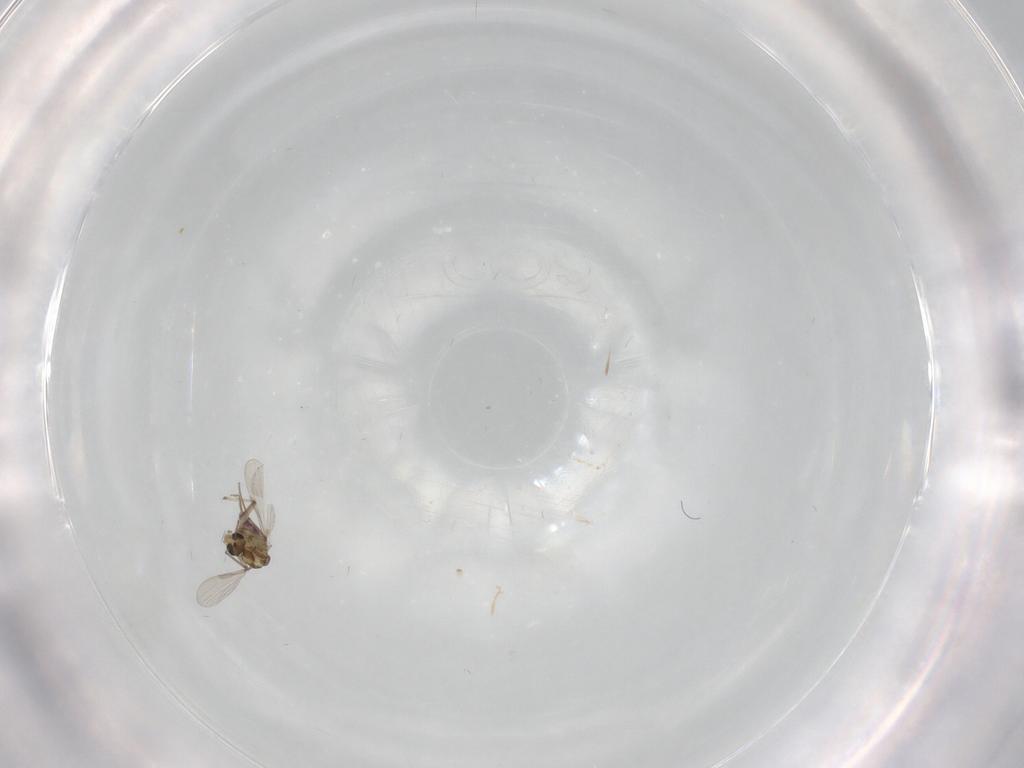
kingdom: Animalia
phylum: Arthropoda
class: Insecta
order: Diptera
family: Chironomidae
